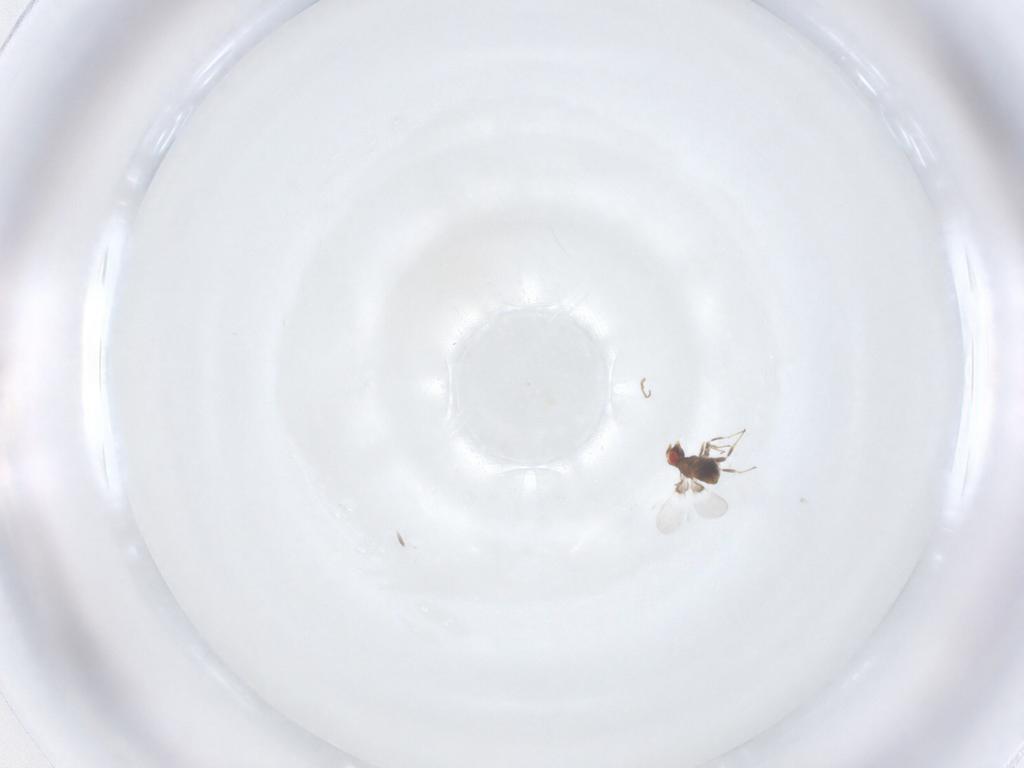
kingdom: Animalia
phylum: Arthropoda
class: Insecta
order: Hymenoptera
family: Trichogrammatidae
